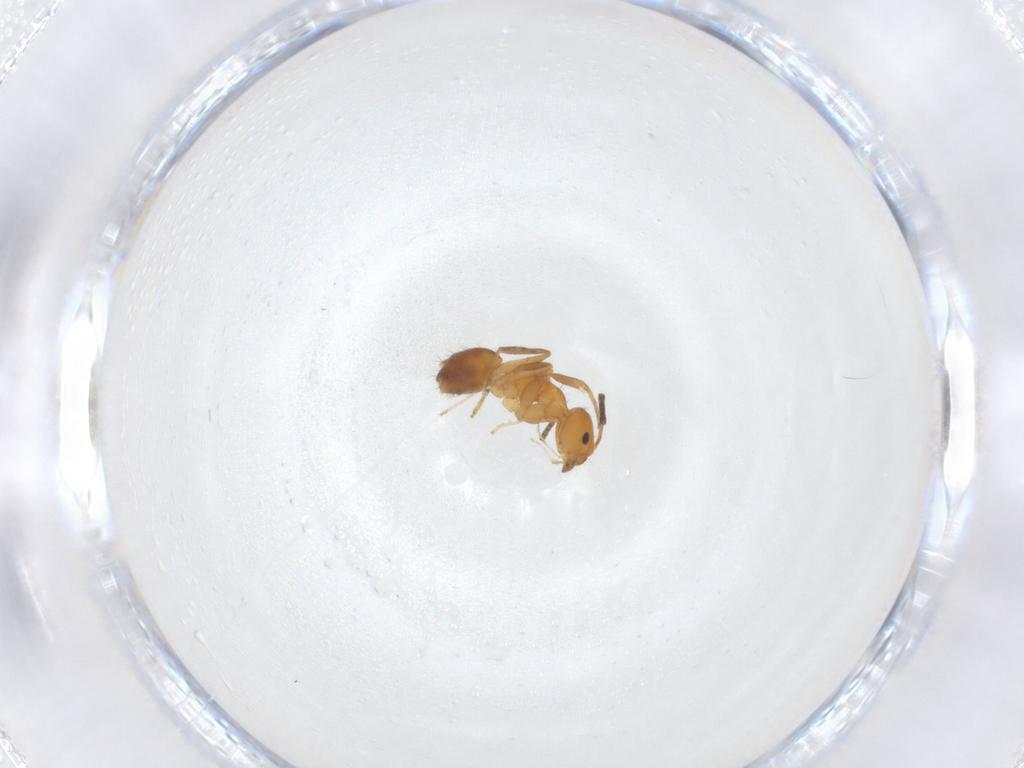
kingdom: Animalia
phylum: Arthropoda
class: Insecta
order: Hymenoptera
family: Formicidae
